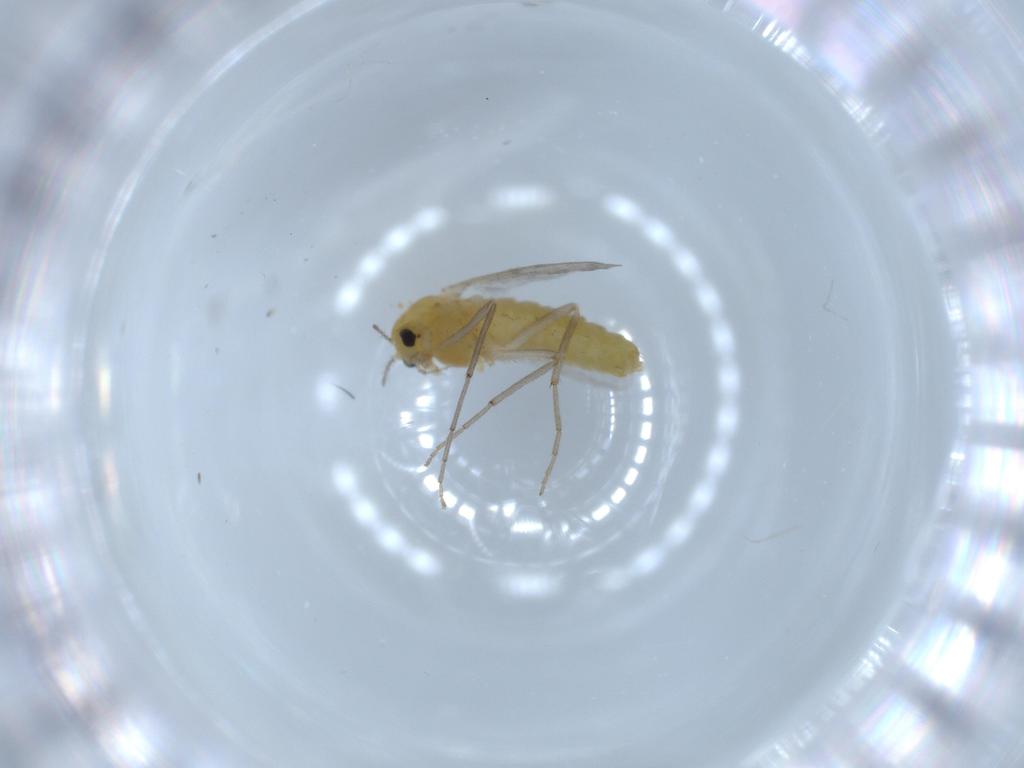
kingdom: Animalia
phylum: Arthropoda
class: Insecta
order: Diptera
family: Chironomidae
